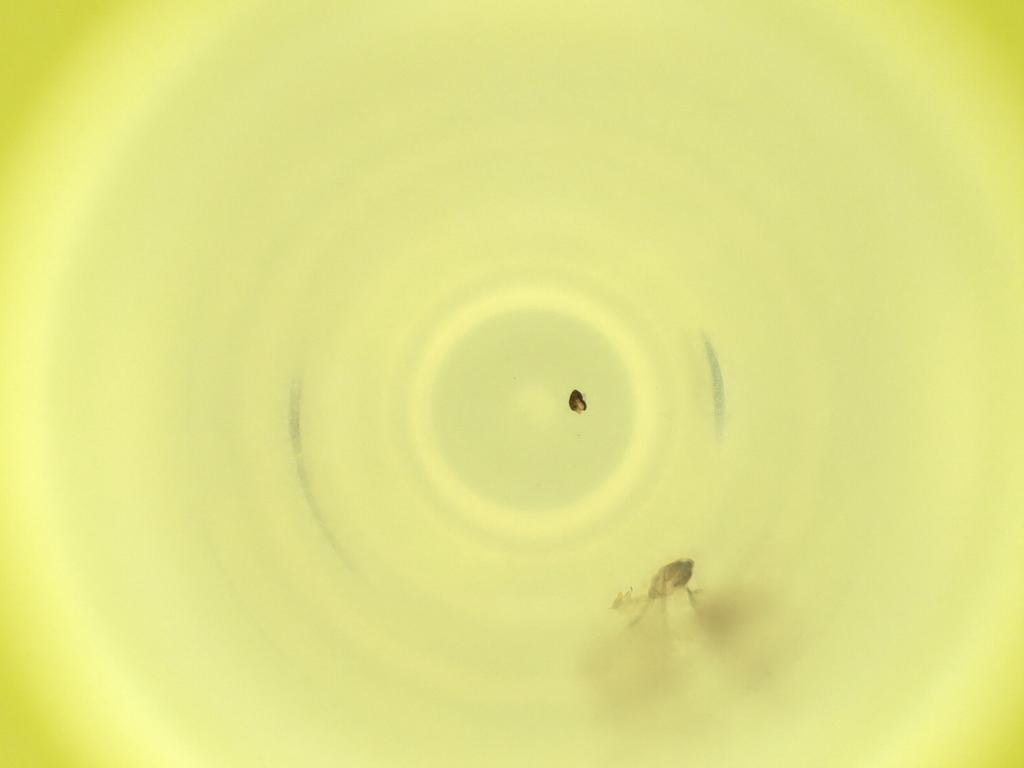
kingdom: Animalia
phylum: Arthropoda
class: Insecta
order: Diptera
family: Cecidomyiidae
